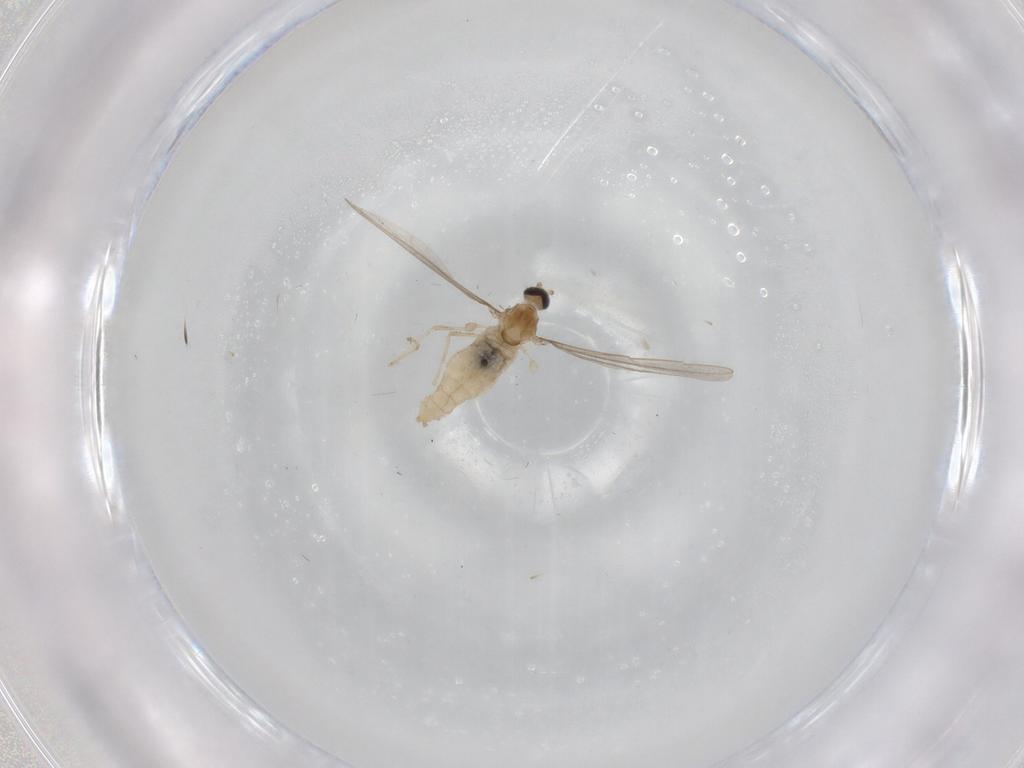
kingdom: Animalia
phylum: Arthropoda
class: Insecta
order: Diptera
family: Cecidomyiidae
